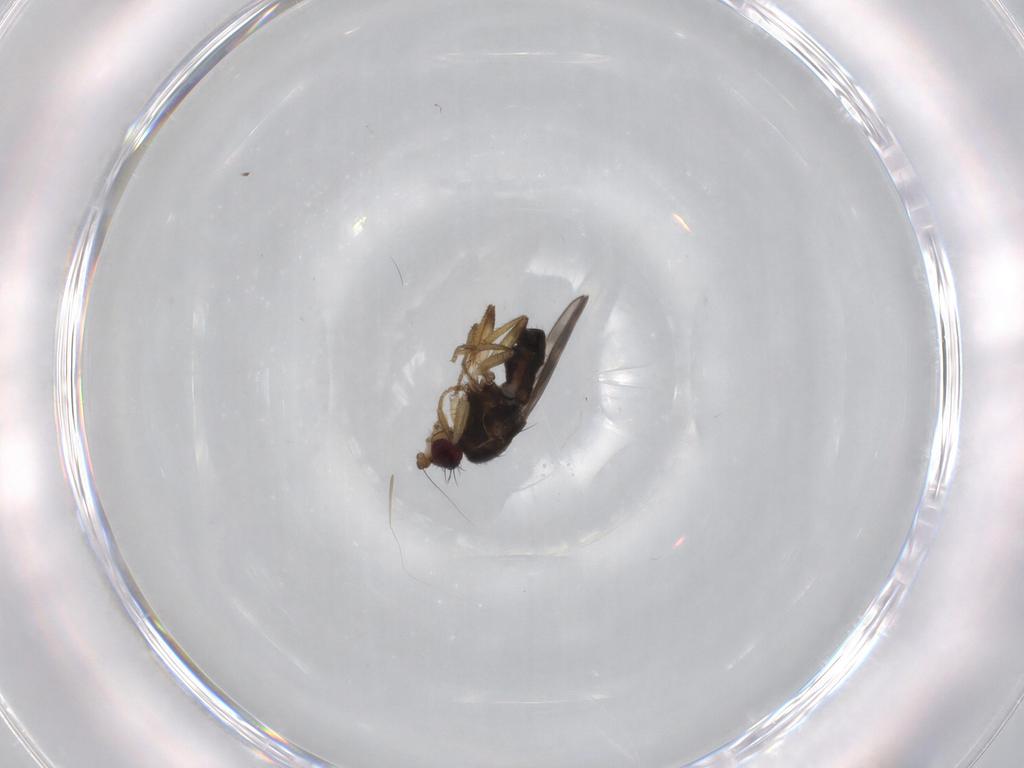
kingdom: Animalia
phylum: Arthropoda
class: Insecta
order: Diptera
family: Sphaeroceridae
